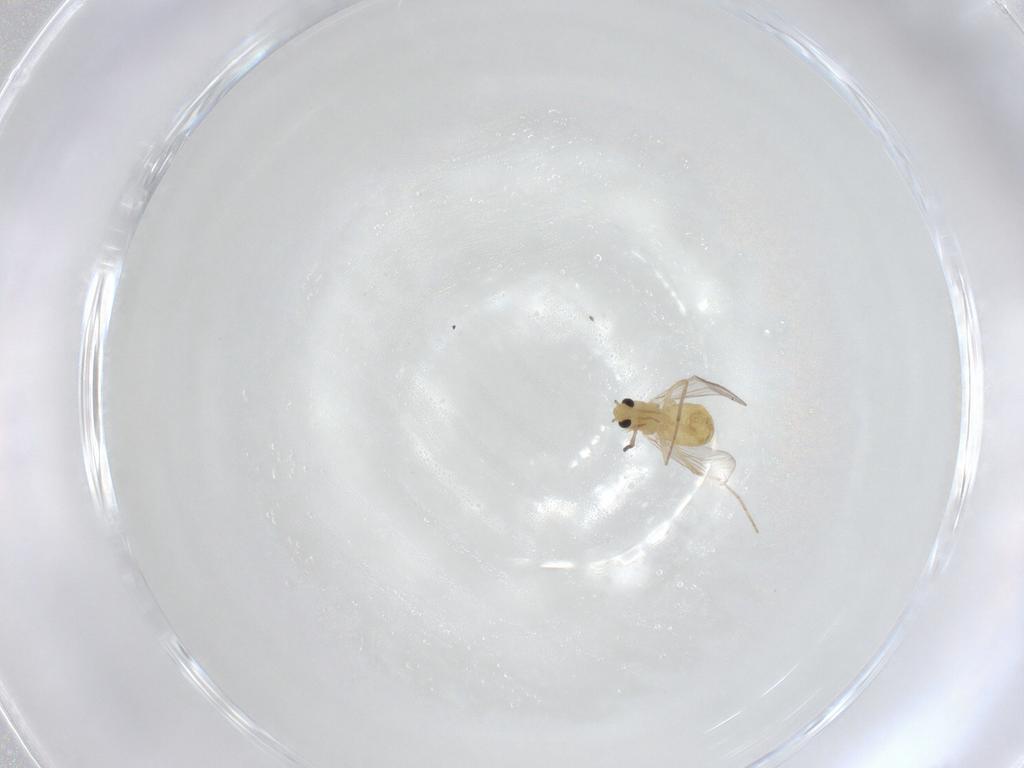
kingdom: Animalia
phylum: Arthropoda
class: Insecta
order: Diptera
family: Chironomidae
